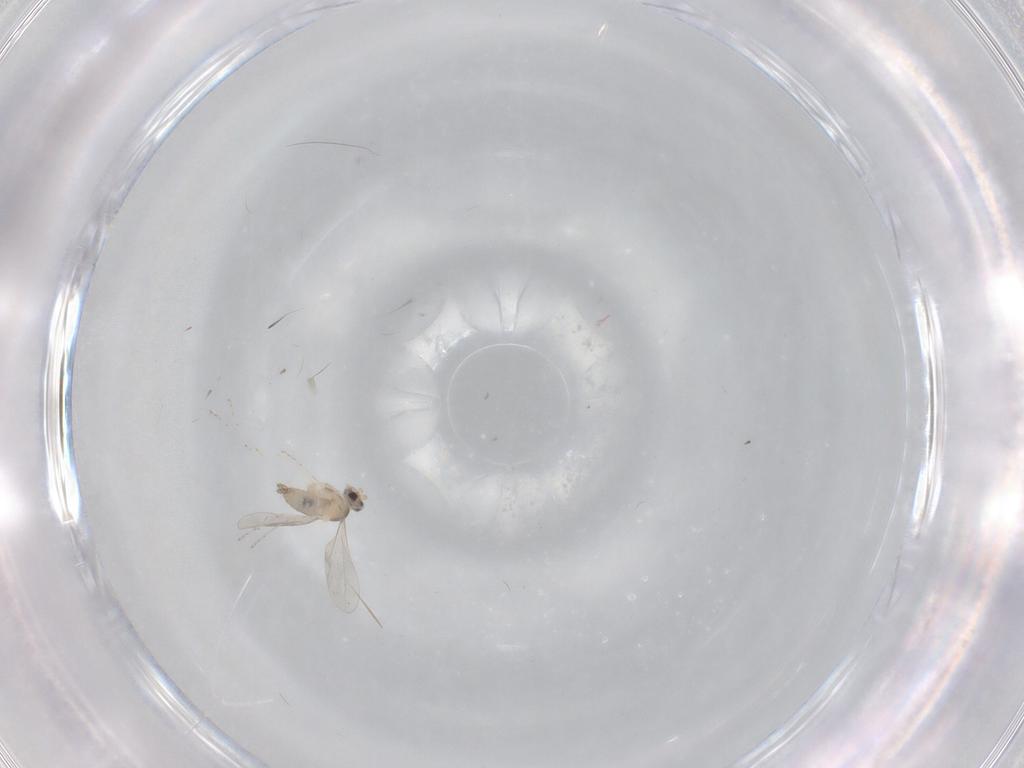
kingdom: Animalia
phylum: Arthropoda
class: Insecta
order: Diptera
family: Cecidomyiidae
